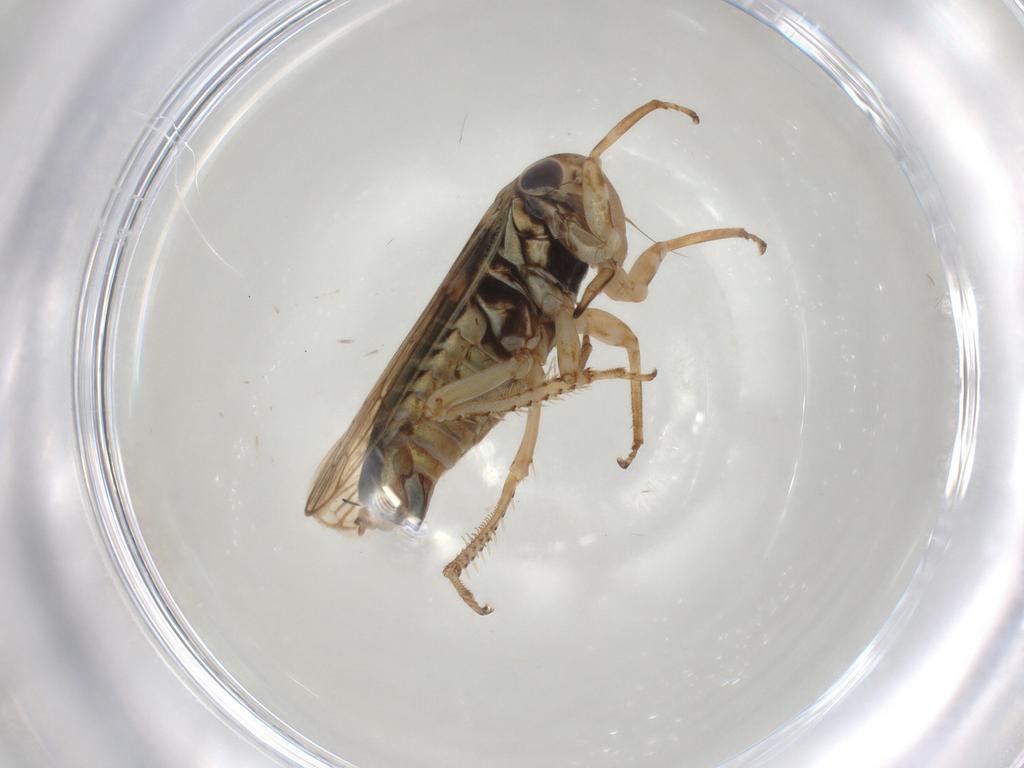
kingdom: Animalia
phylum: Arthropoda
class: Insecta
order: Hemiptera
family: Cicadellidae
